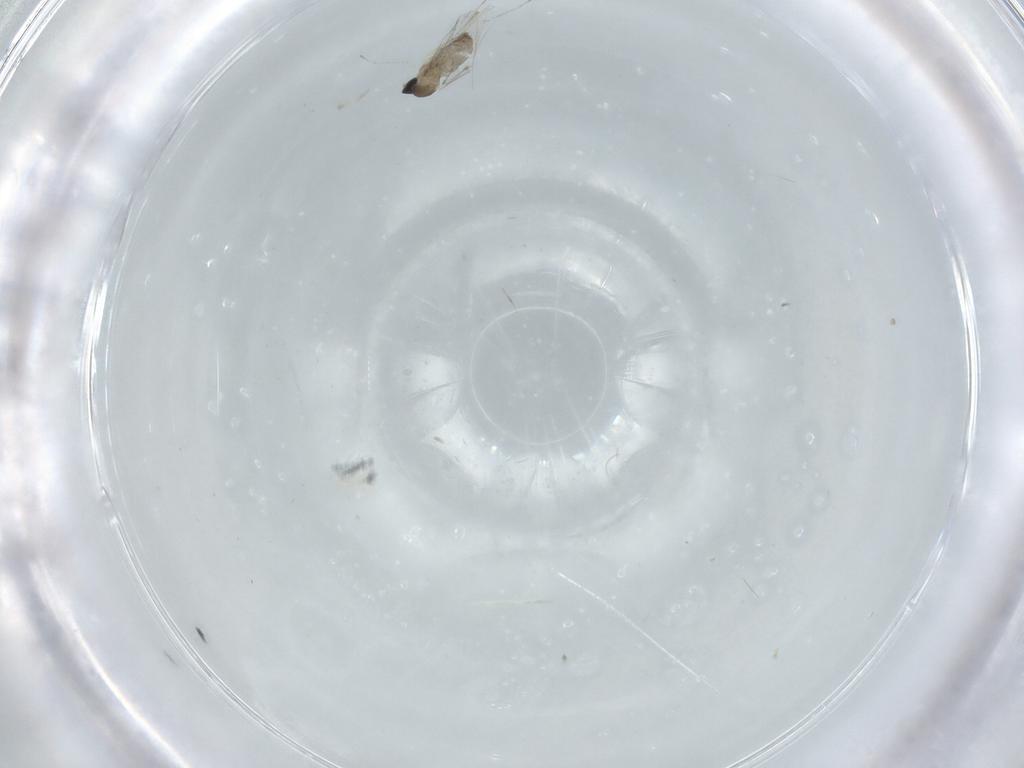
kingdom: Animalia
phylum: Arthropoda
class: Insecta
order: Diptera
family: Cecidomyiidae
